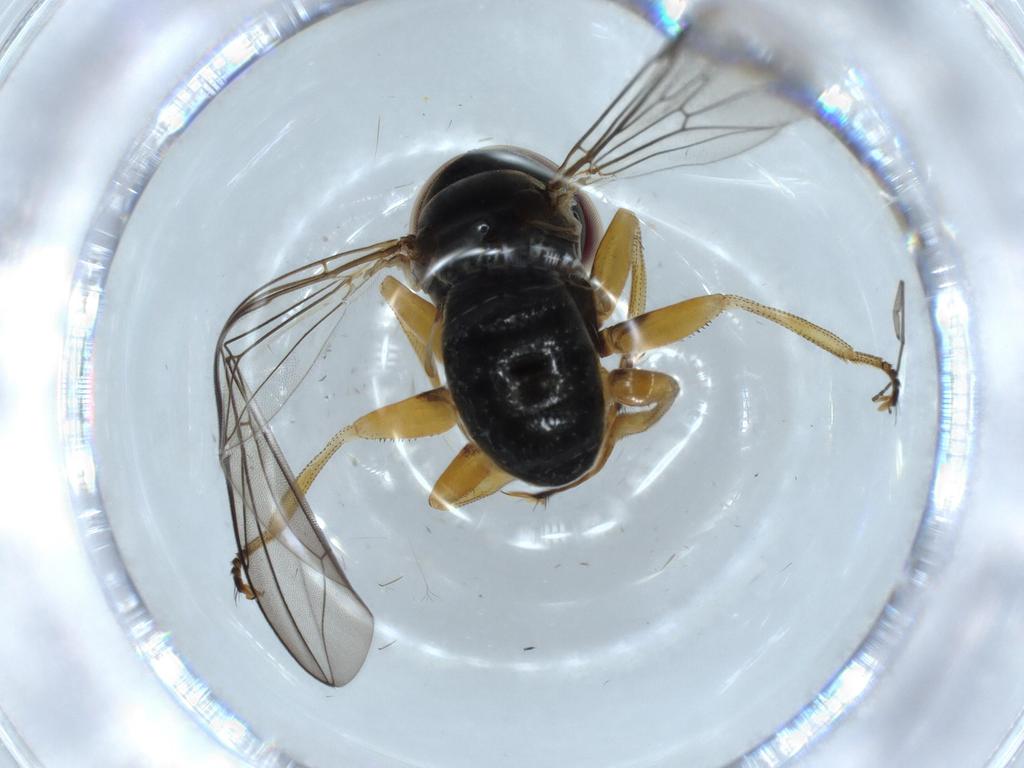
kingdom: Animalia
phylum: Arthropoda
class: Insecta
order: Diptera
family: Sciaridae
